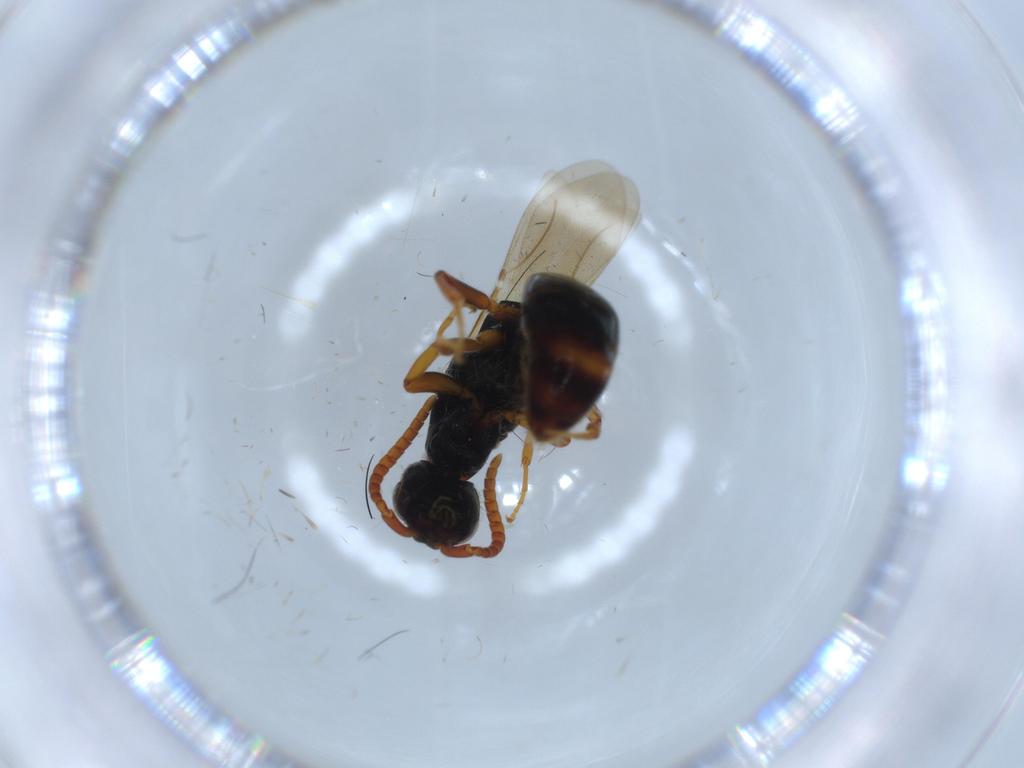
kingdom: Animalia
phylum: Arthropoda
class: Insecta
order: Hymenoptera
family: Bethylidae
